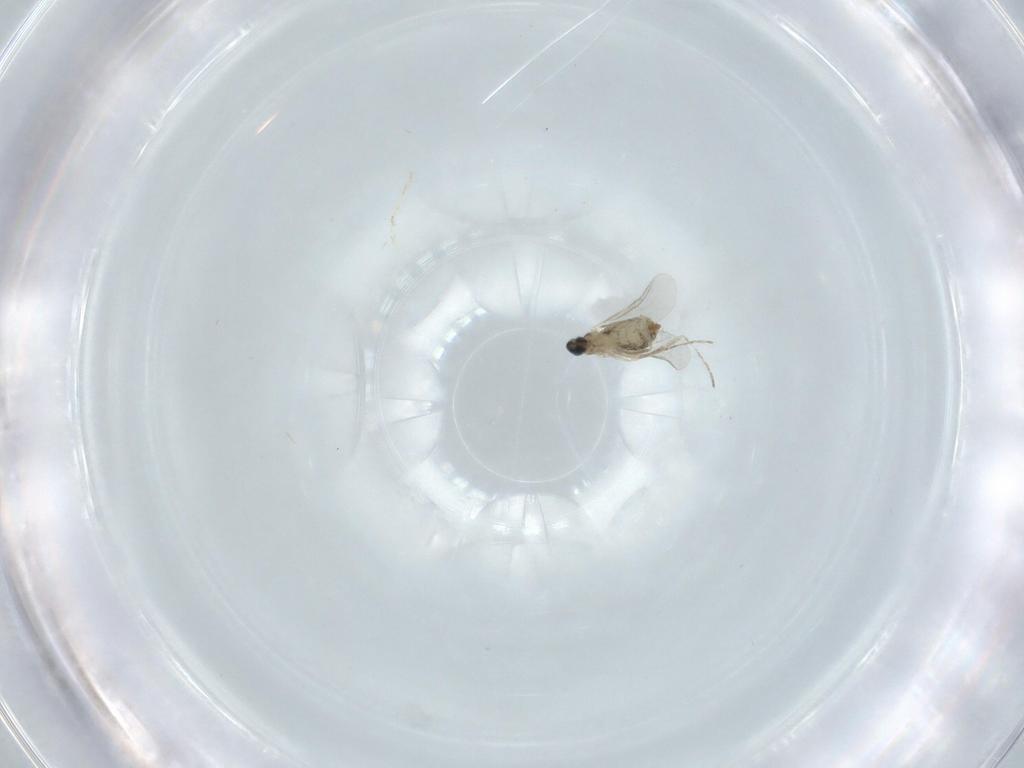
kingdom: Animalia
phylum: Arthropoda
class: Insecta
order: Diptera
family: Cecidomyiidae
